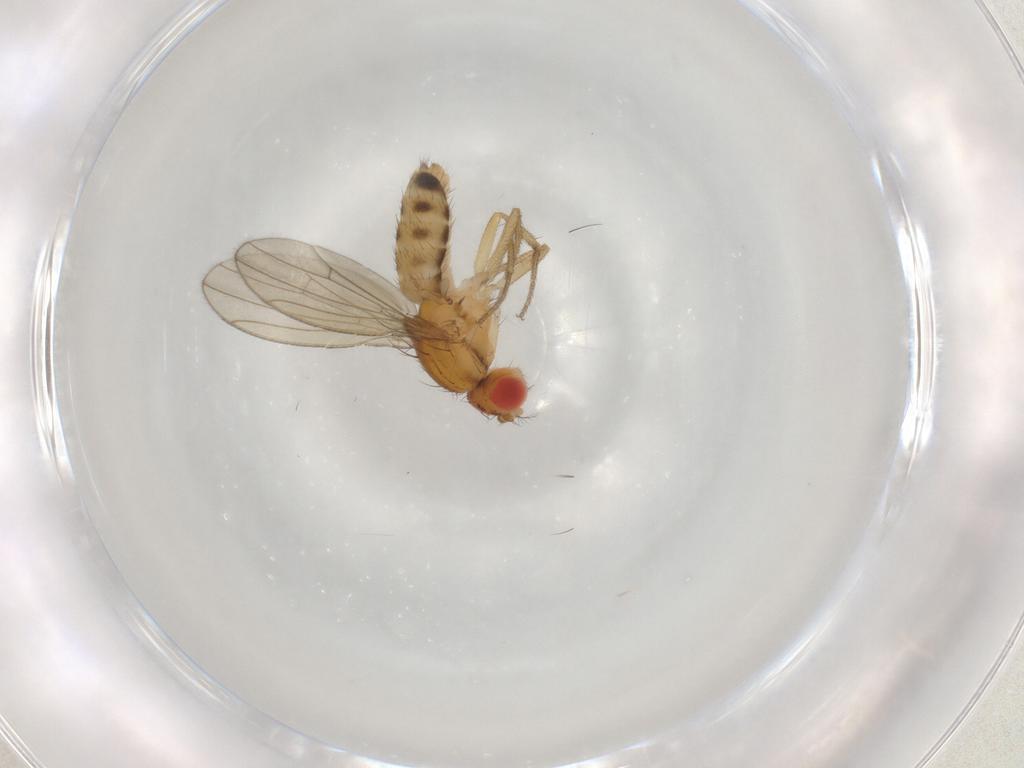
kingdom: Animalia
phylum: Arthropoda
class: Insecta
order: Diptera
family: Drosophilidae
